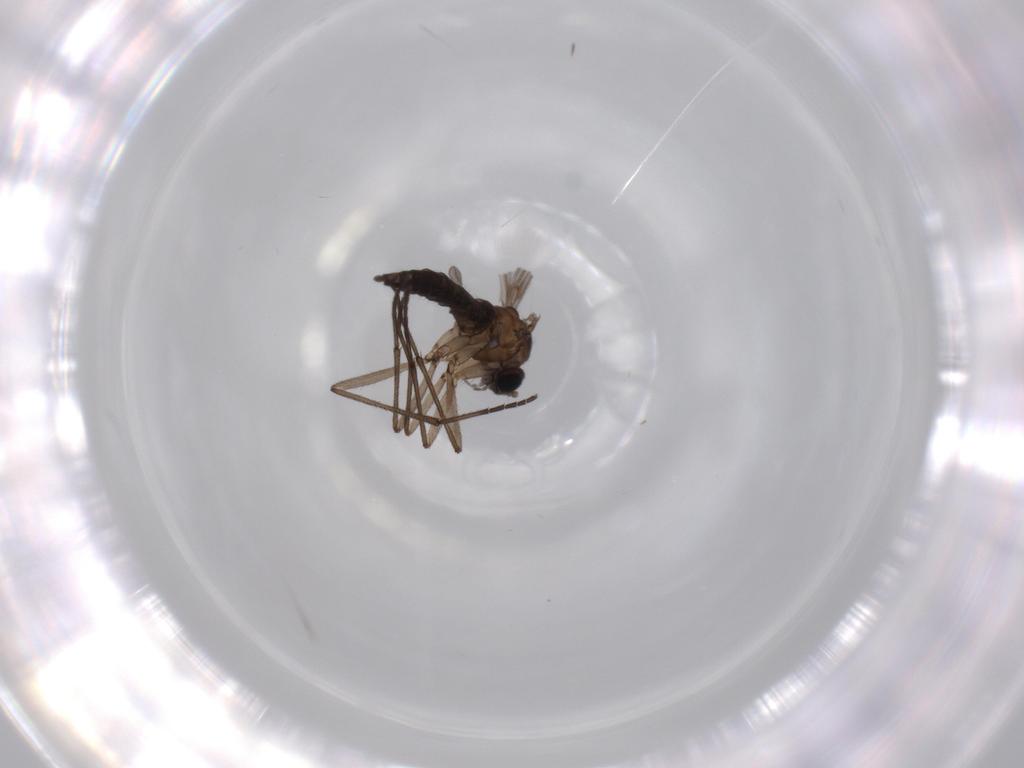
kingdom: Animalia
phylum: Arthropoda
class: Insecta
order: Diptera
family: Sciaridae
